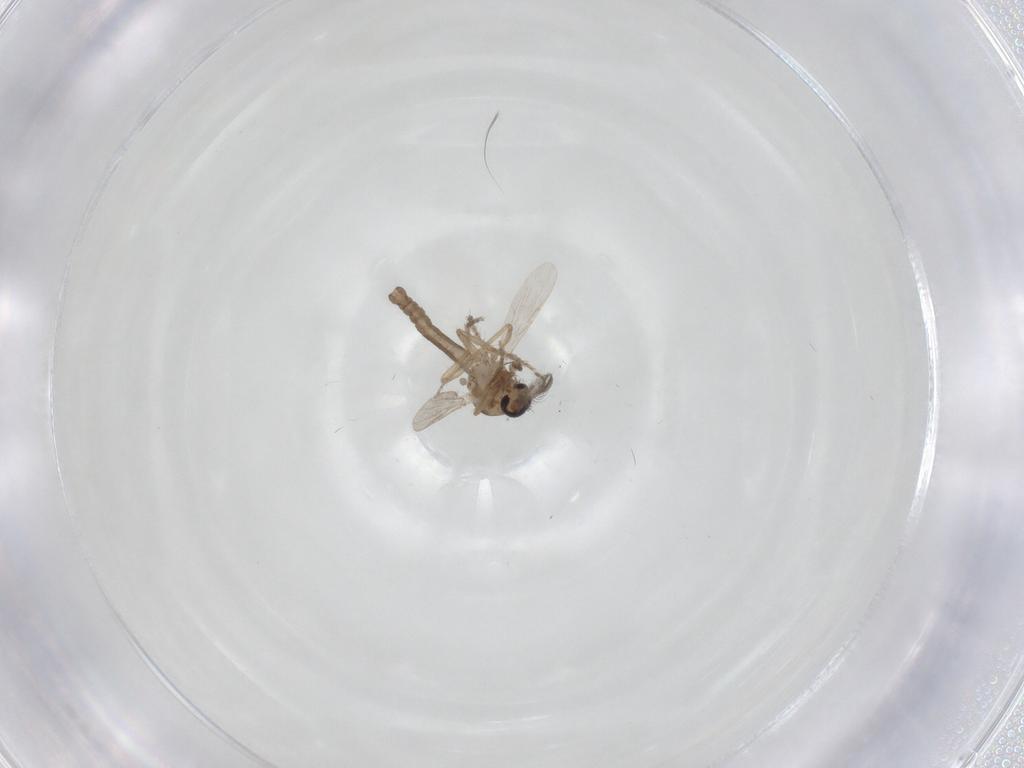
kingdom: Animalia
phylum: Arthropoda
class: Insecta
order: Diptera
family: Ceratopogonidae
